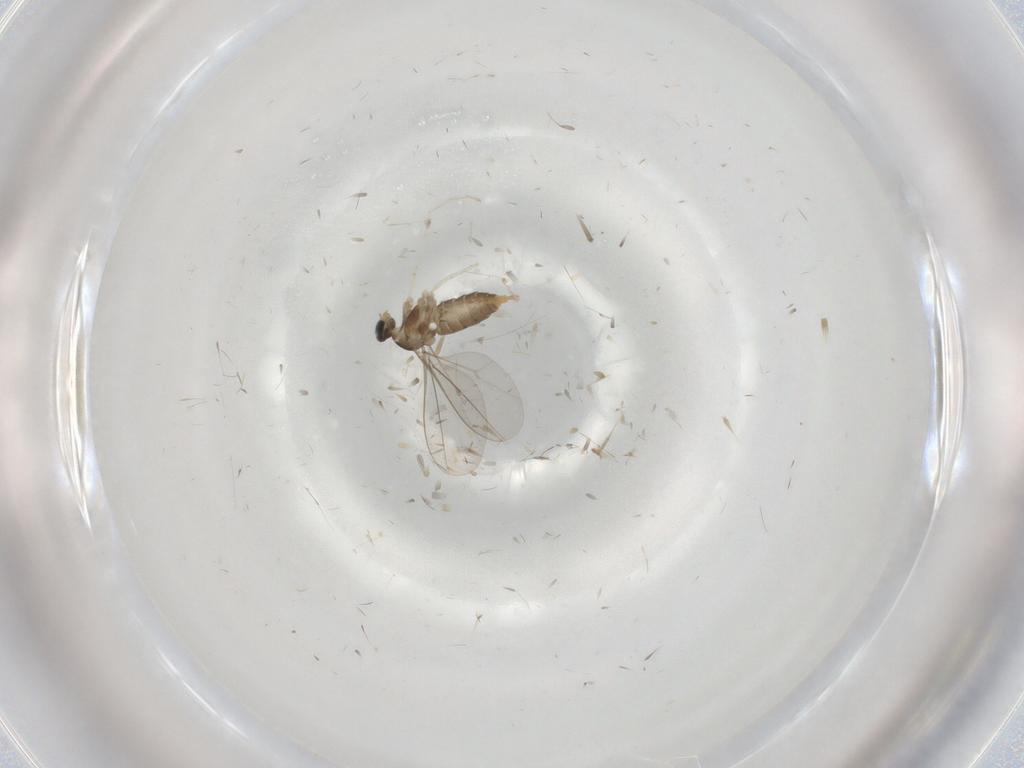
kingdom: Animalia
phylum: Arthropoda
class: Insecta
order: Diptera
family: Cecidomyiidae
